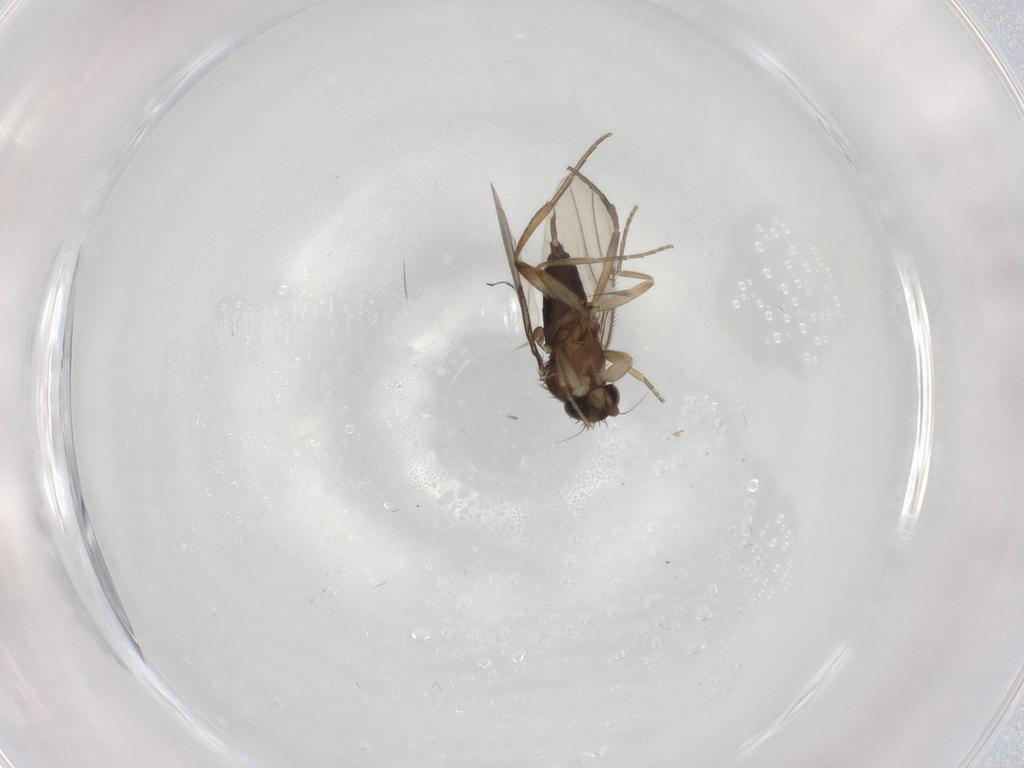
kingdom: Animalia
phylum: Arthropoda
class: Insecta
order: Diptera
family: Phoridae
